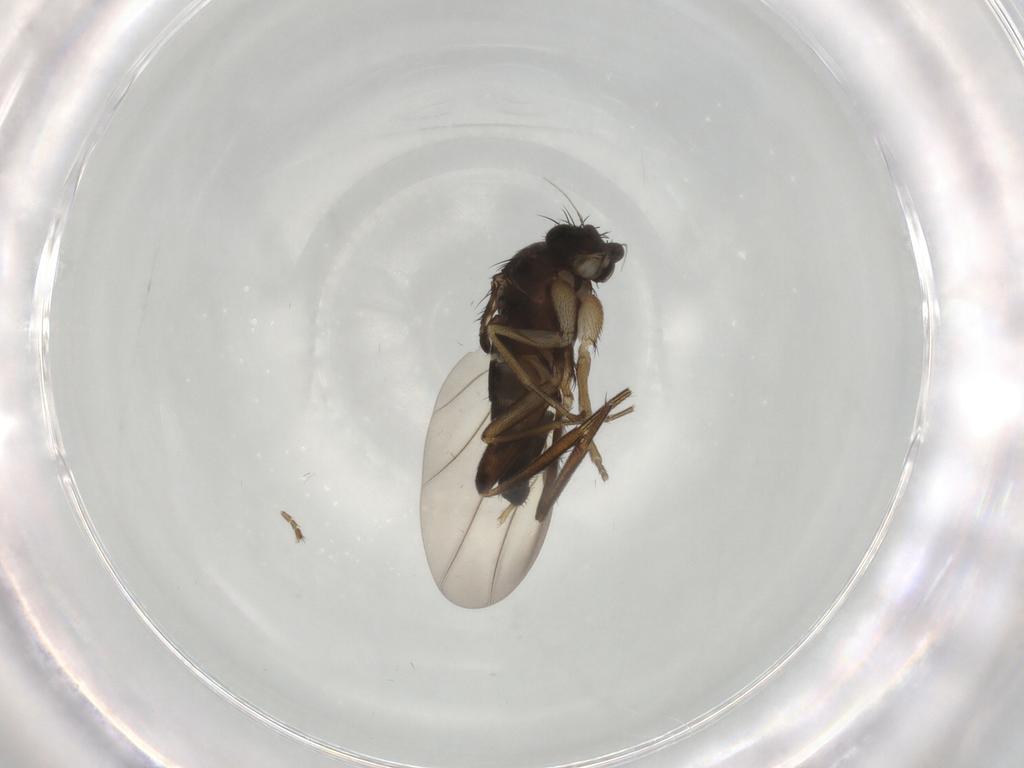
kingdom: Animalia
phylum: Arthropoda
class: Insecta
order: Diptera
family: Phoridae
